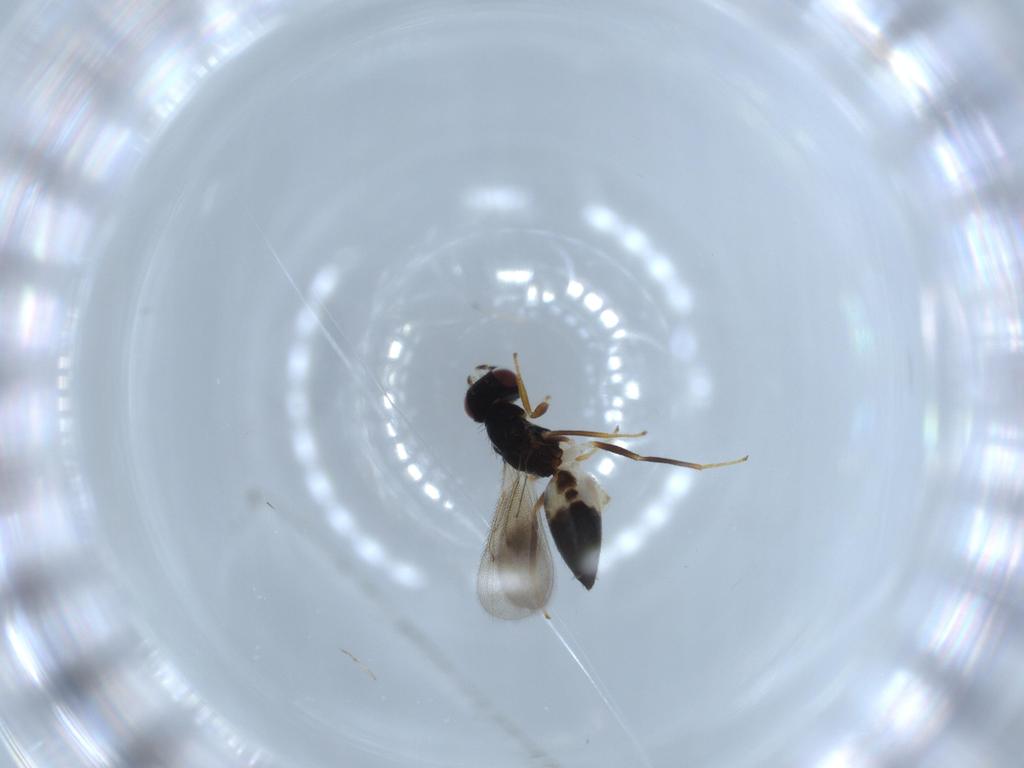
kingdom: Animalia
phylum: Arthropoda
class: Insecta
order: Hymenoptera
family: Eulophidae
